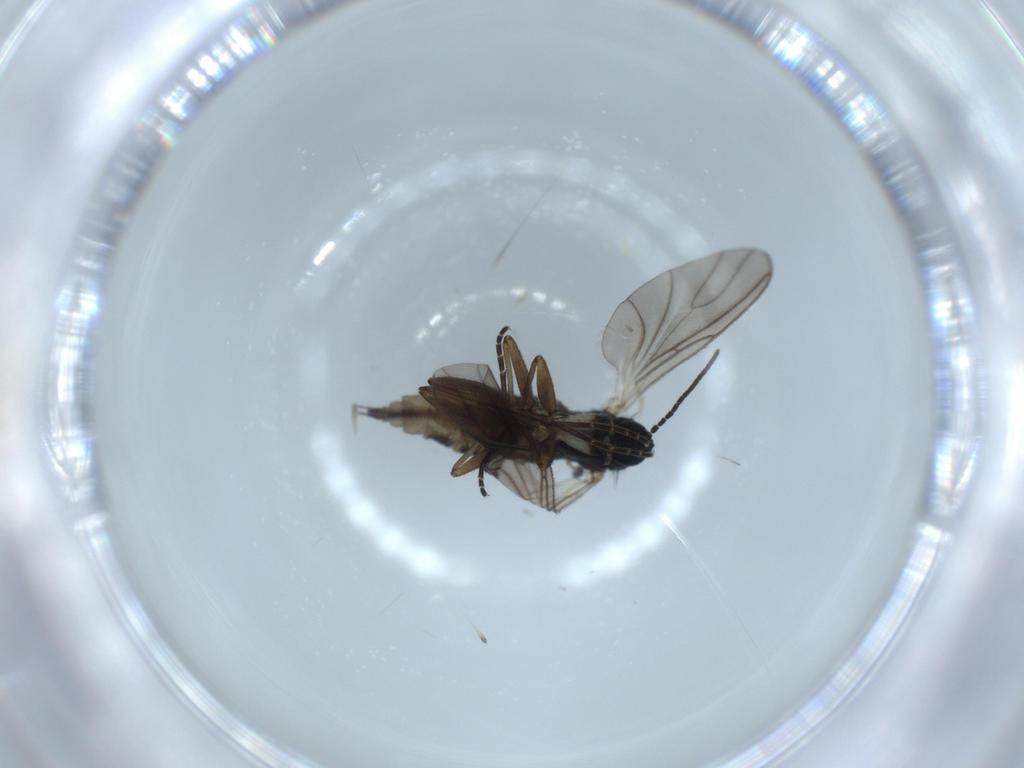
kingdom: Animalia
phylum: Arthropoda
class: Insecta
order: Diptera
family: Sciaridae
